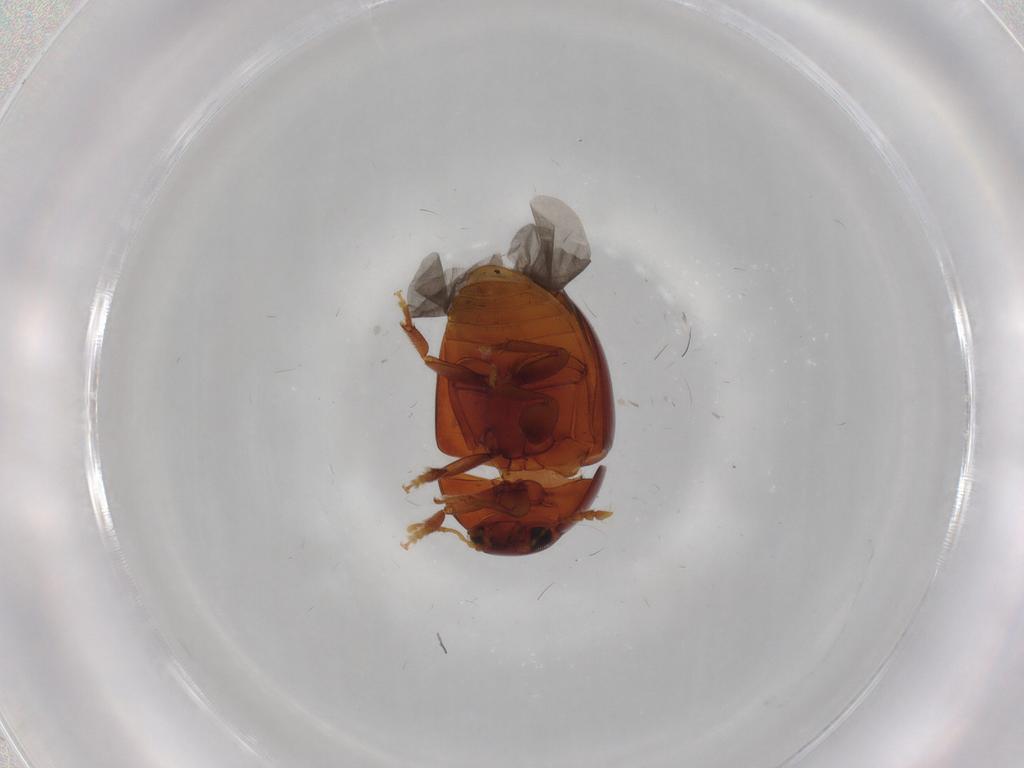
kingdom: Animalia
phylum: Arthropoda
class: Insecta
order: Coleoptera
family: Phalacridae
